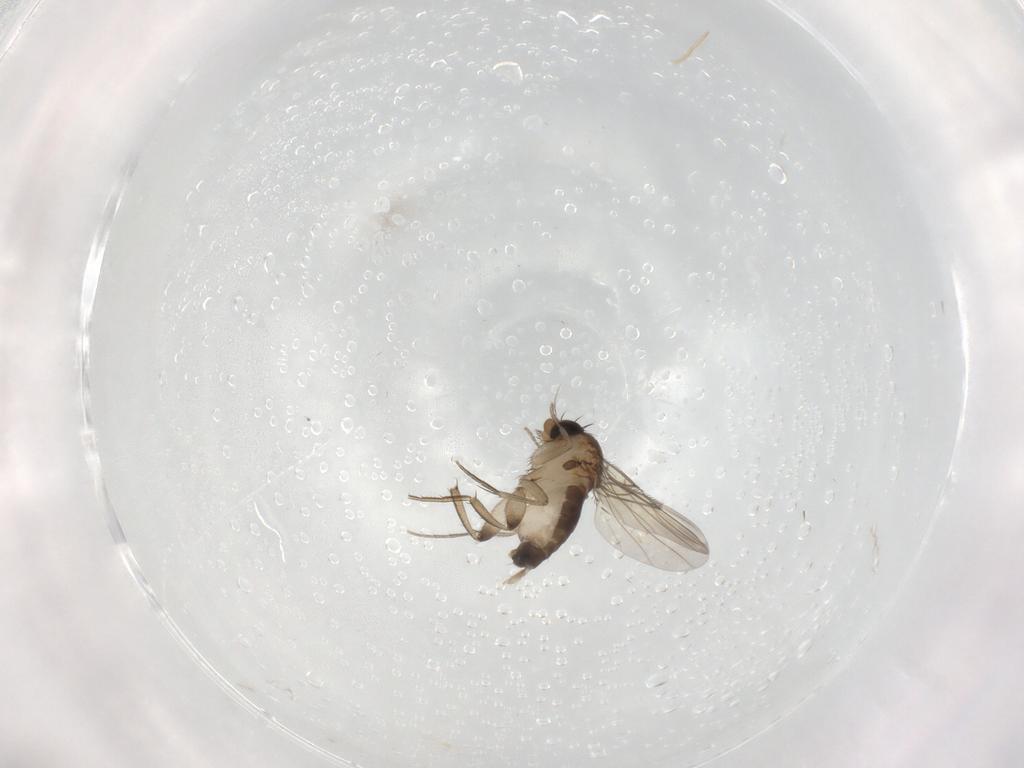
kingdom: Animalia
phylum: Arthropoda
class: Insecta
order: Diptera
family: Phoridae
